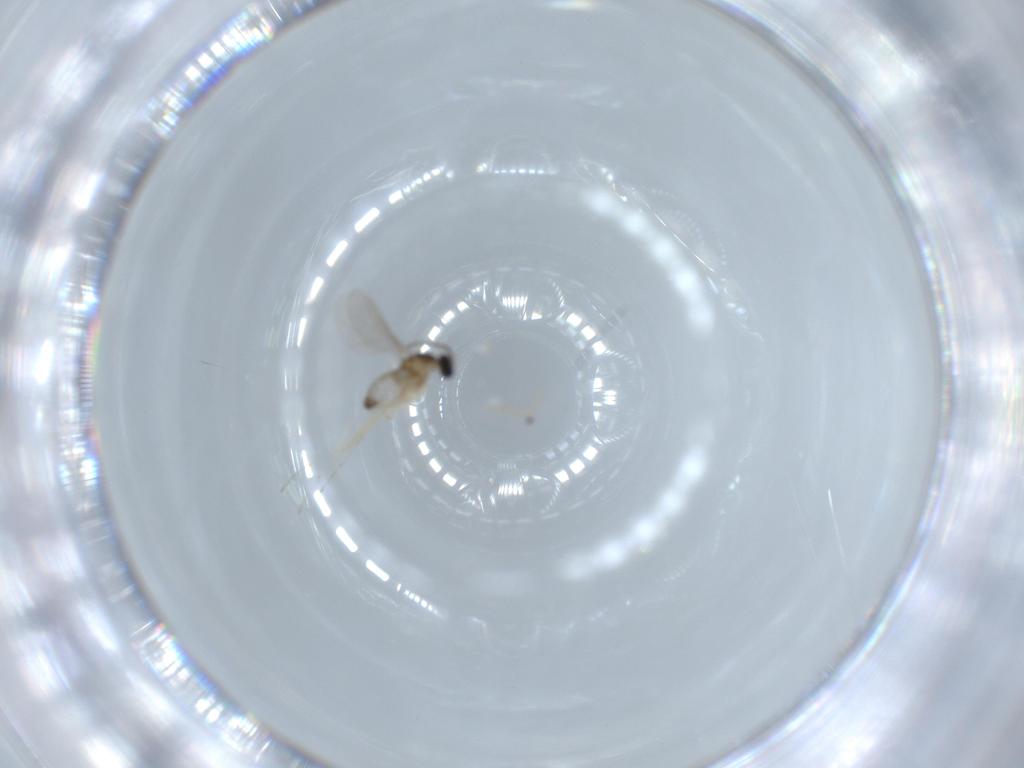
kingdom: Animalia
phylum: Arthropoda
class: Insecta
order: Diptera
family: Cecidomyiidae
